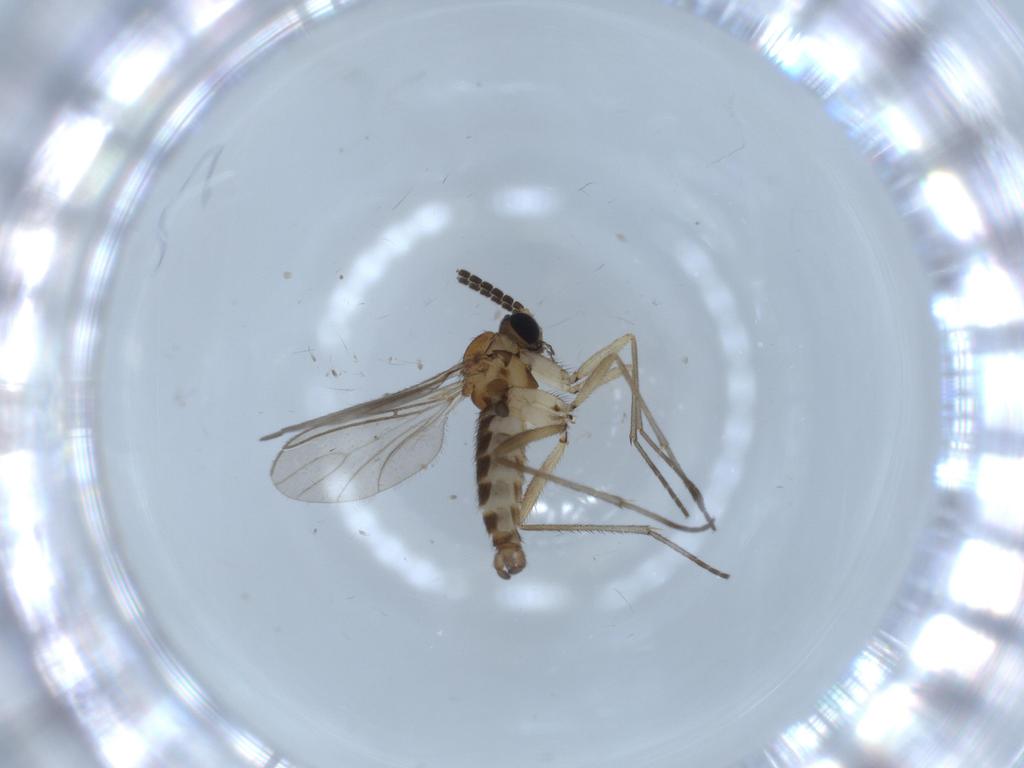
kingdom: Animalia
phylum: Arthropoda
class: Insecta
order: Diptera
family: Sciaridae
